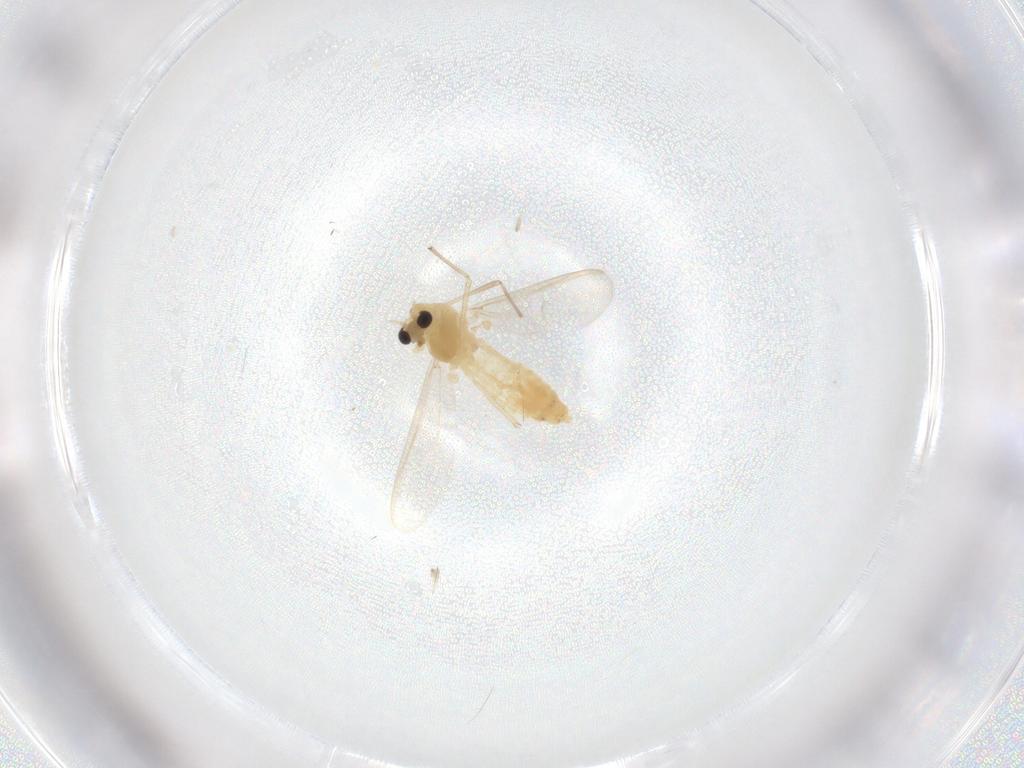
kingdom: Animalia
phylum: Arthropoda
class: Insecta
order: Diptera
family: Chironomidae
